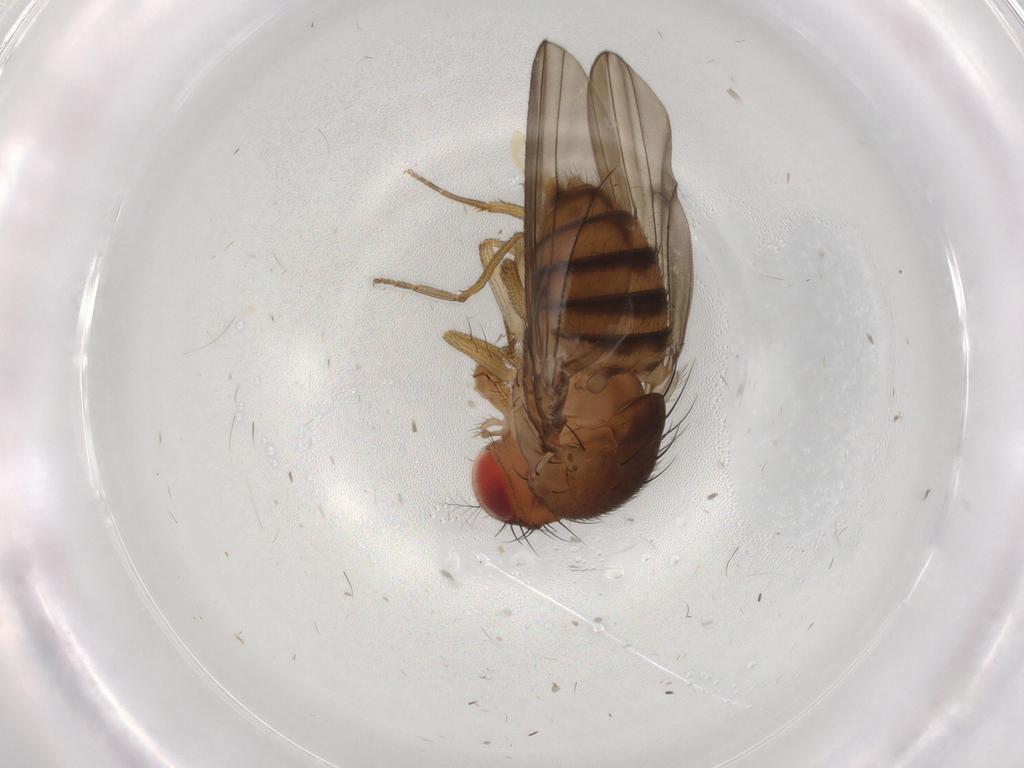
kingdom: Animalia
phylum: Arthropoda
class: Insecta
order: Diptera
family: Drosophilidae
